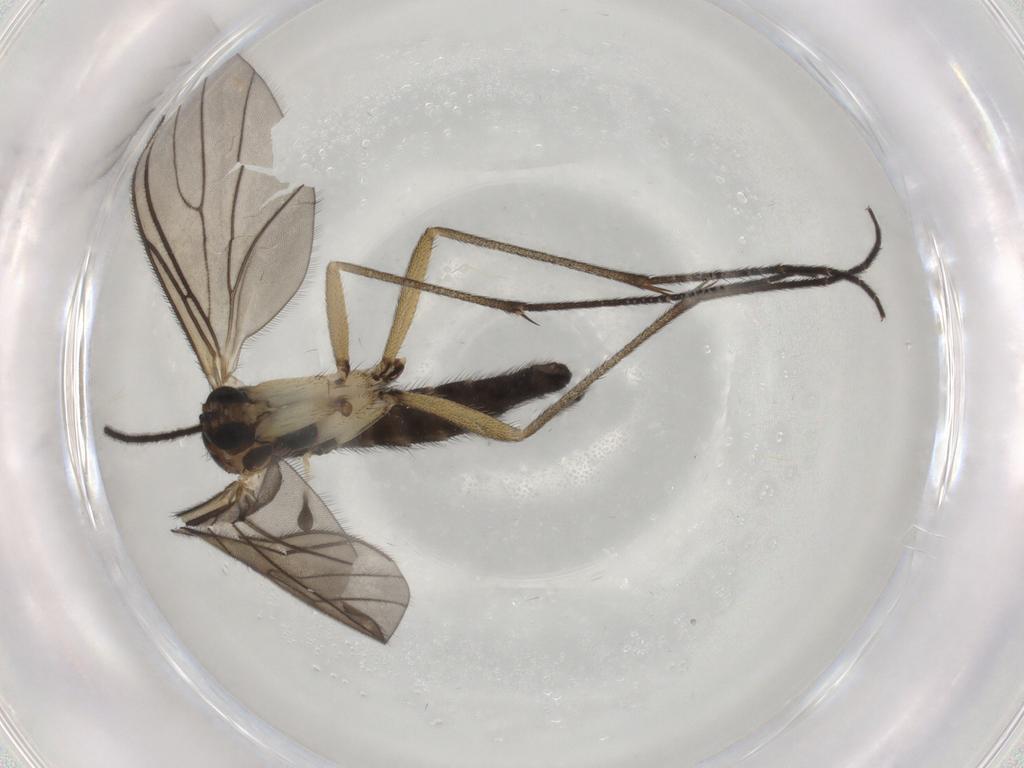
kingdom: Animalia
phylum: Arthropoda
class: Insecta
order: Diptera
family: Sciaridae
